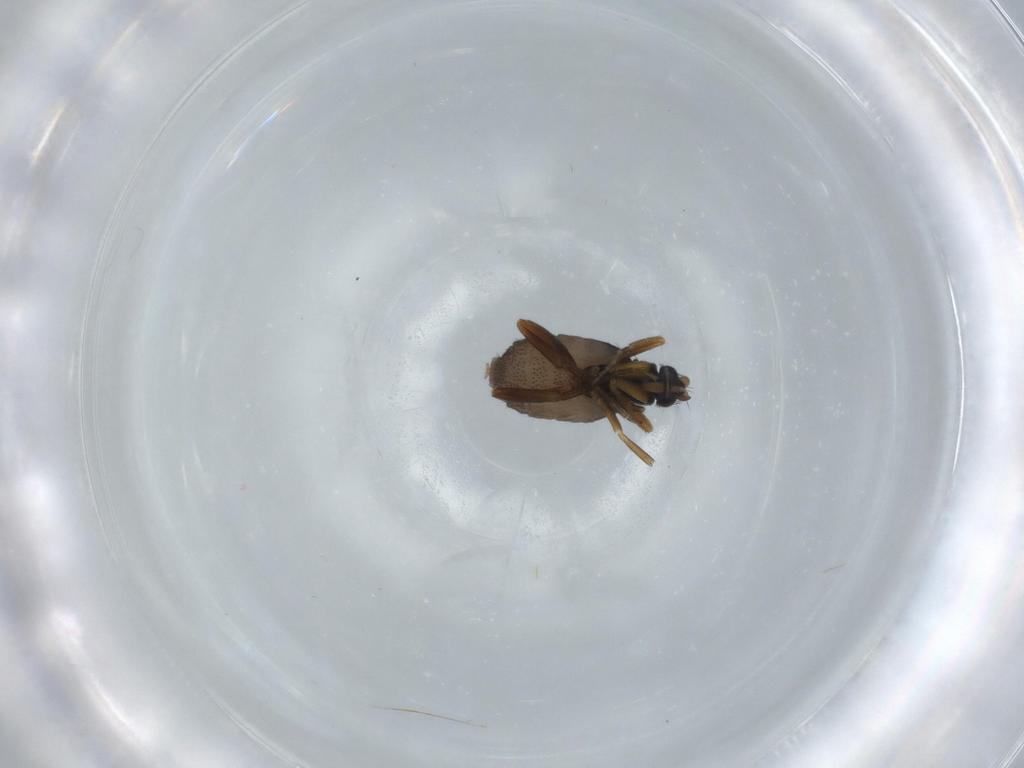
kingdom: Animalia
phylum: Arthropoda
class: Insecta
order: Diptera
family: Phoridae
